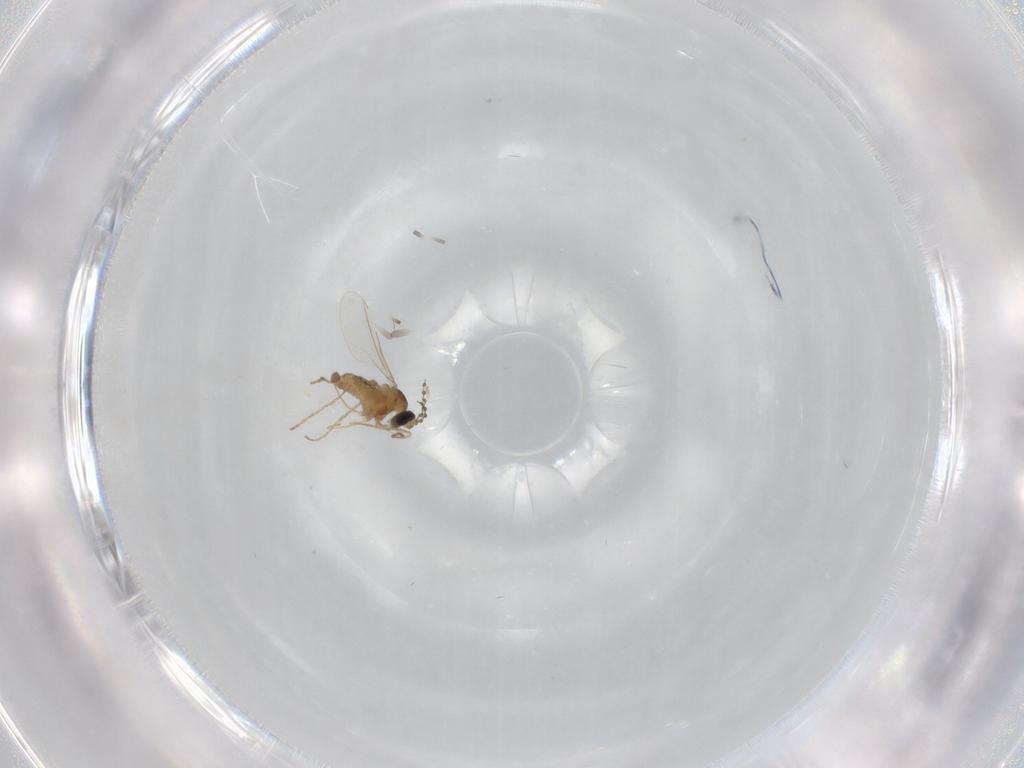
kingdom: Animalia
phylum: Arthropoda
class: Insecta
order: Diptera
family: Cecidomyiidae
